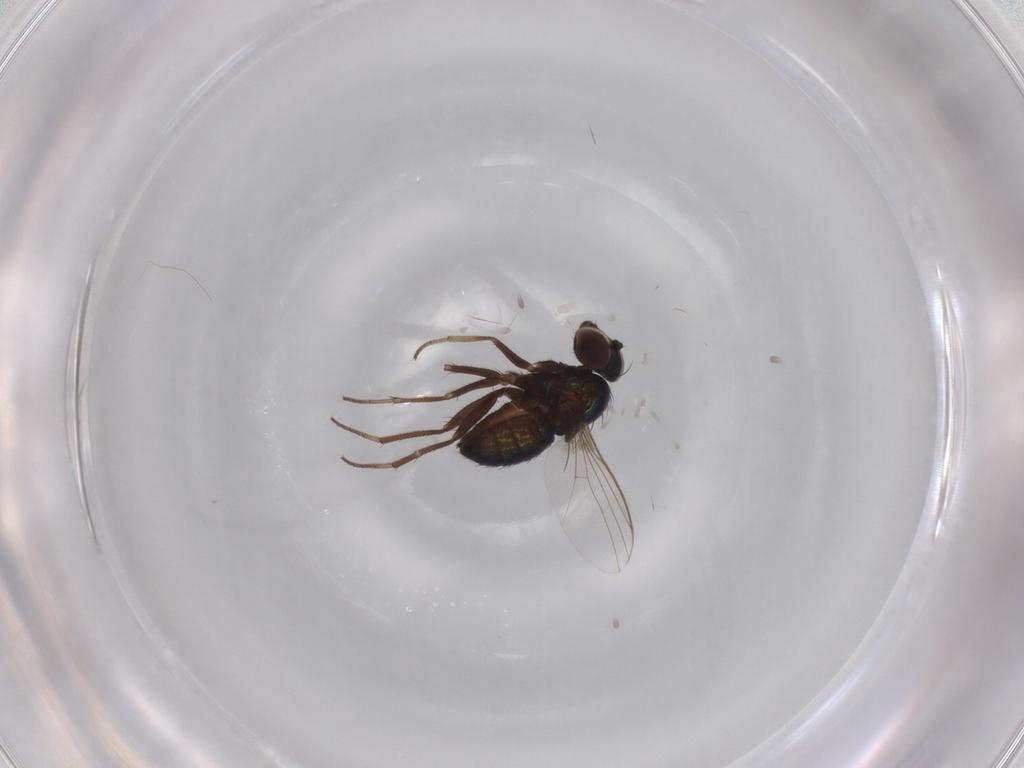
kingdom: Animalia
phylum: Arthropoda
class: Insecta
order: Diptera
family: Dolichopodidae
